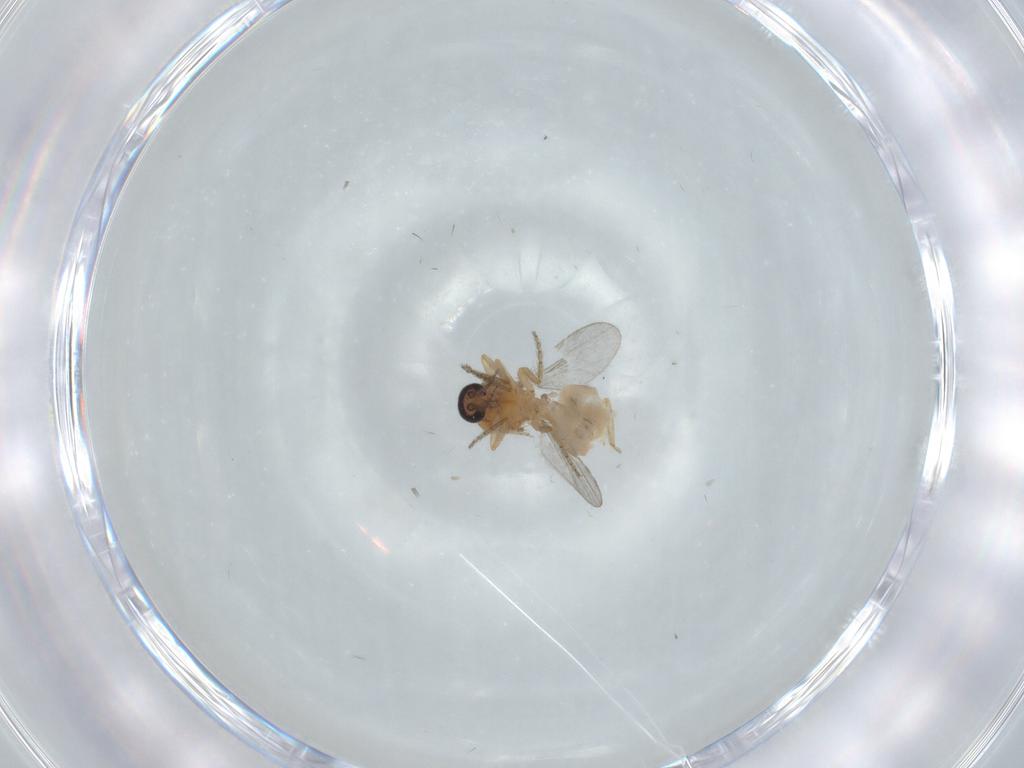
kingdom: Animalia
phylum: Arthropoda
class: Insecta
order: Diptera
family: Ceratopogonidae
